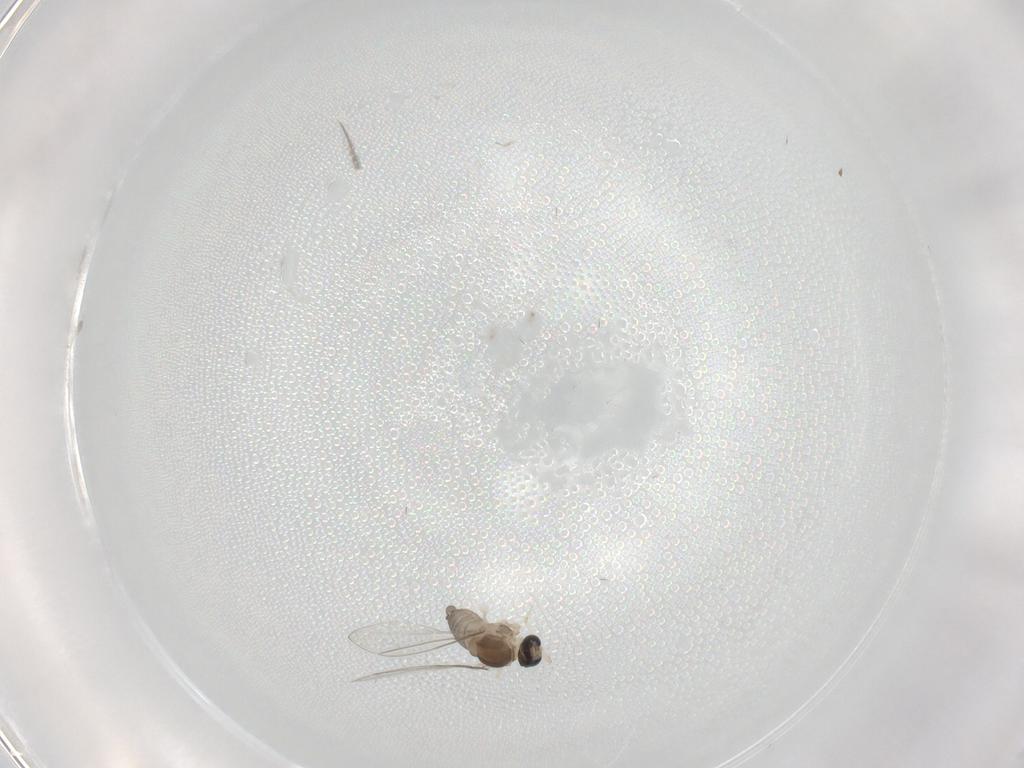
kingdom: Animalia
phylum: Arthropoda
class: Insecta
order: Diptera
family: Cecidomyiidae
